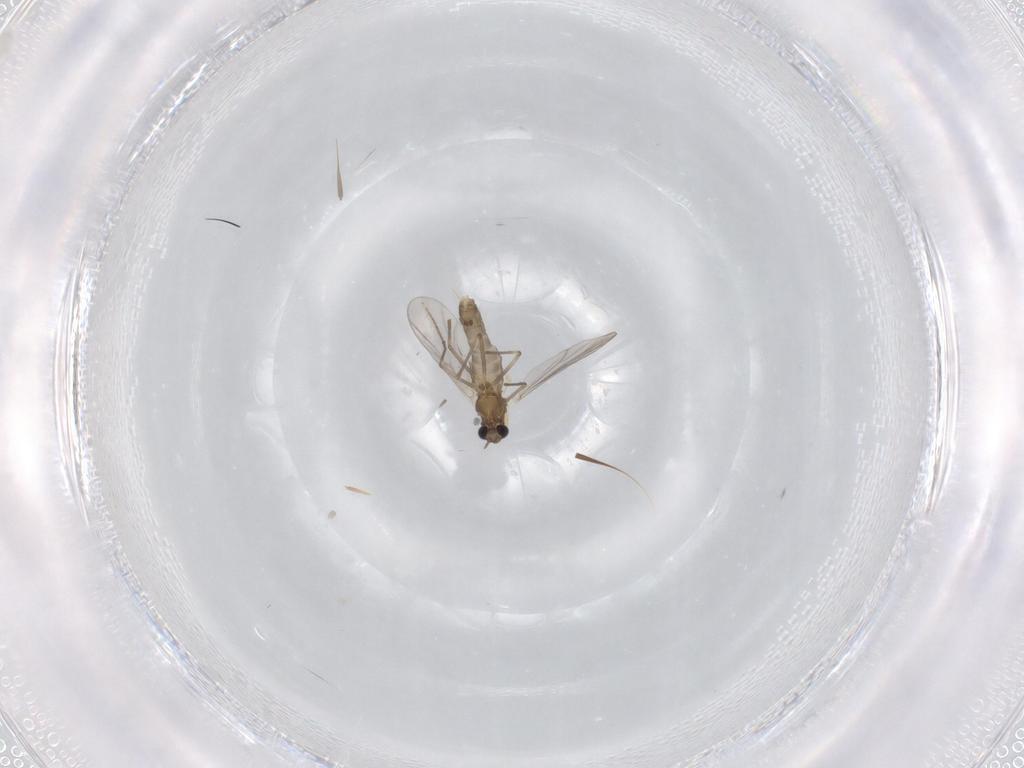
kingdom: Animalia
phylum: Arthropoda
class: Insecta
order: Diptera
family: Chironomidae
